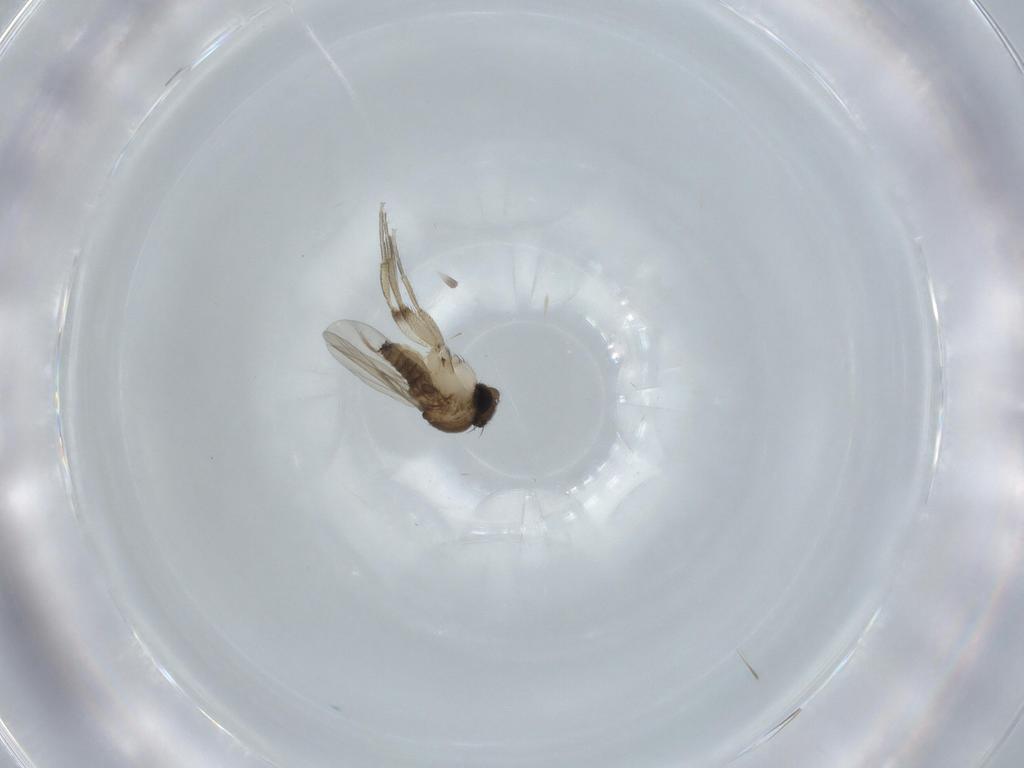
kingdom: Animalia
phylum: Arthropoda
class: Insecta
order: Diptera
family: Phoridae
